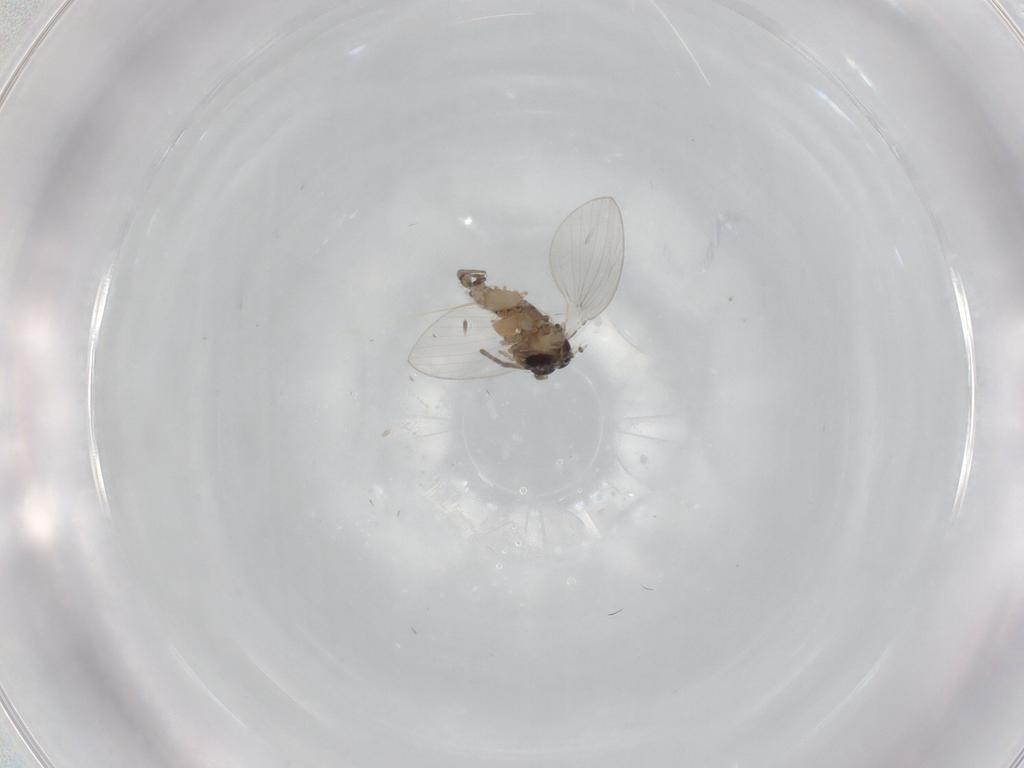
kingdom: Animalia
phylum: Arthropoda
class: Insecta
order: Diptera
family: Psychodidae
